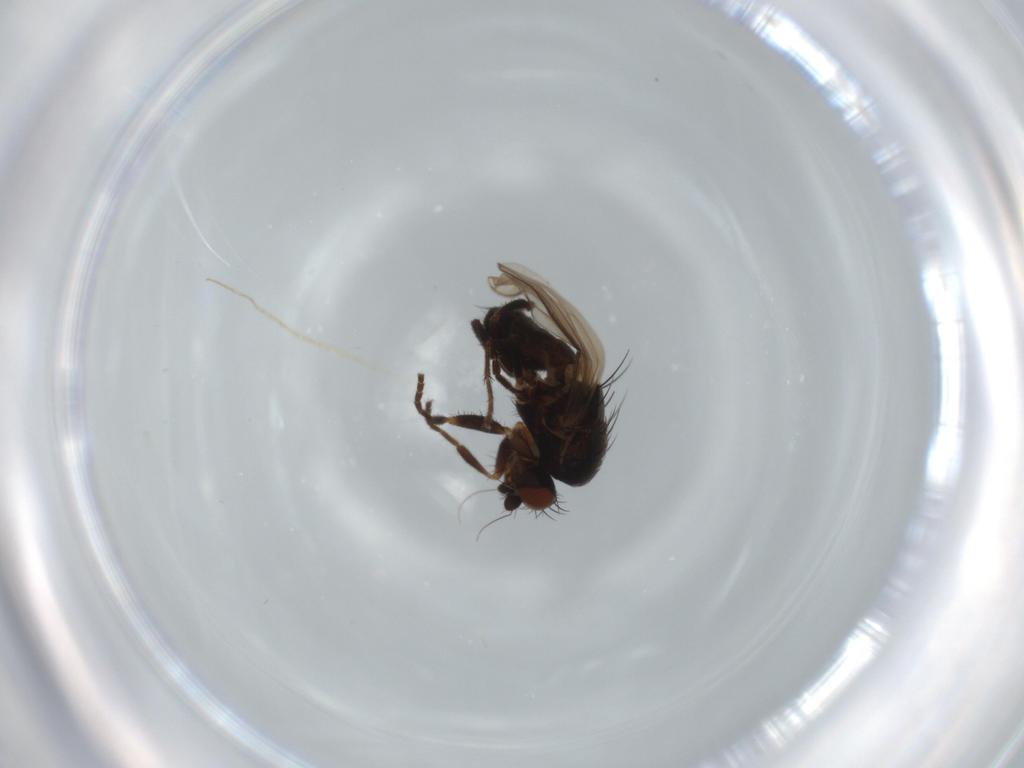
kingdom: Animalia
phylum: Arthropoda
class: Insecta
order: Diptera
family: Sphaeroceridae
